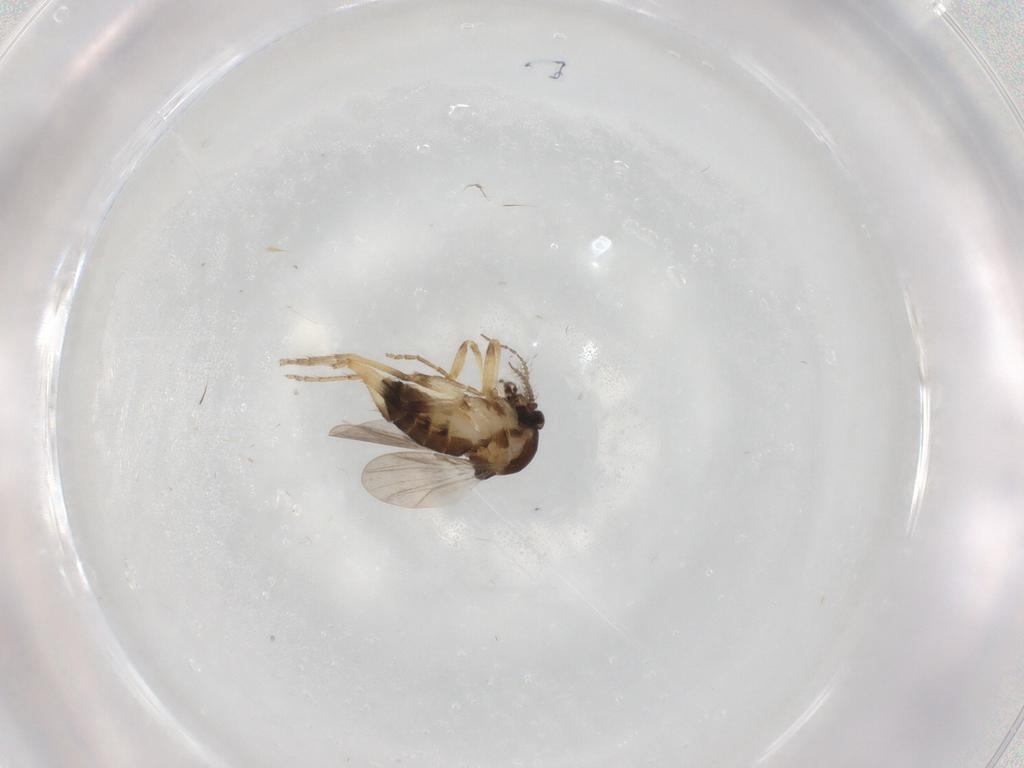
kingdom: Animalia
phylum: Arthropoda
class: Insecta
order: Diptera
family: Ceratopogonidae
